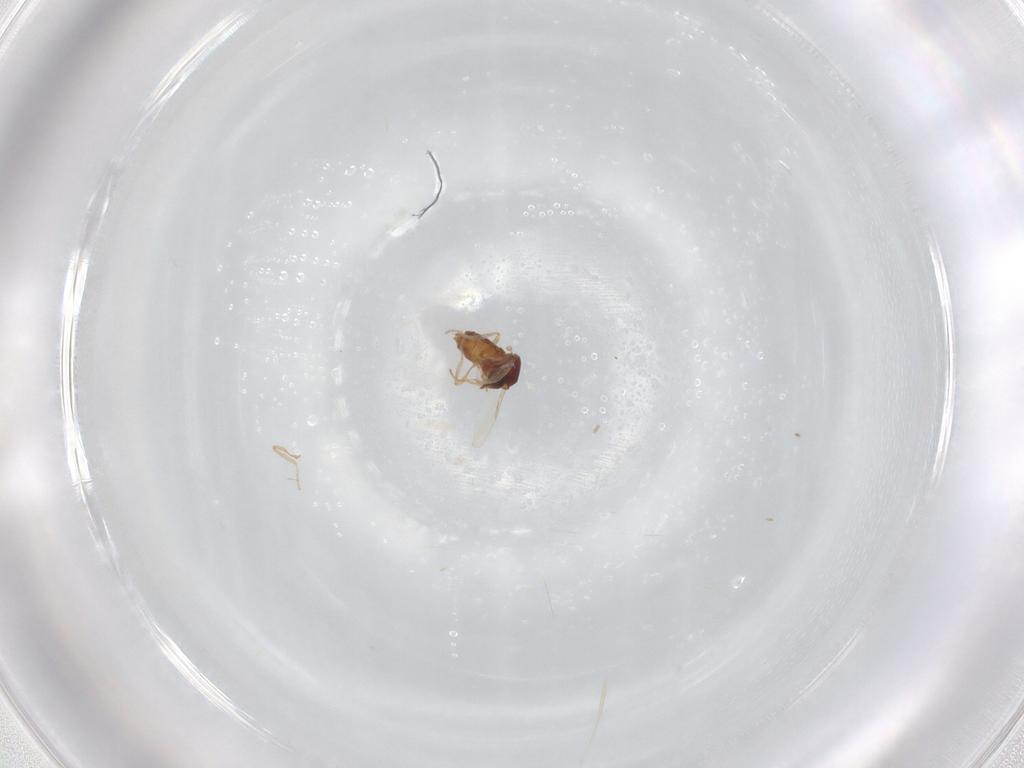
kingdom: Animalia
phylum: Arthropoda
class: Insecta
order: Diptera
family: Ceratopogonidae
